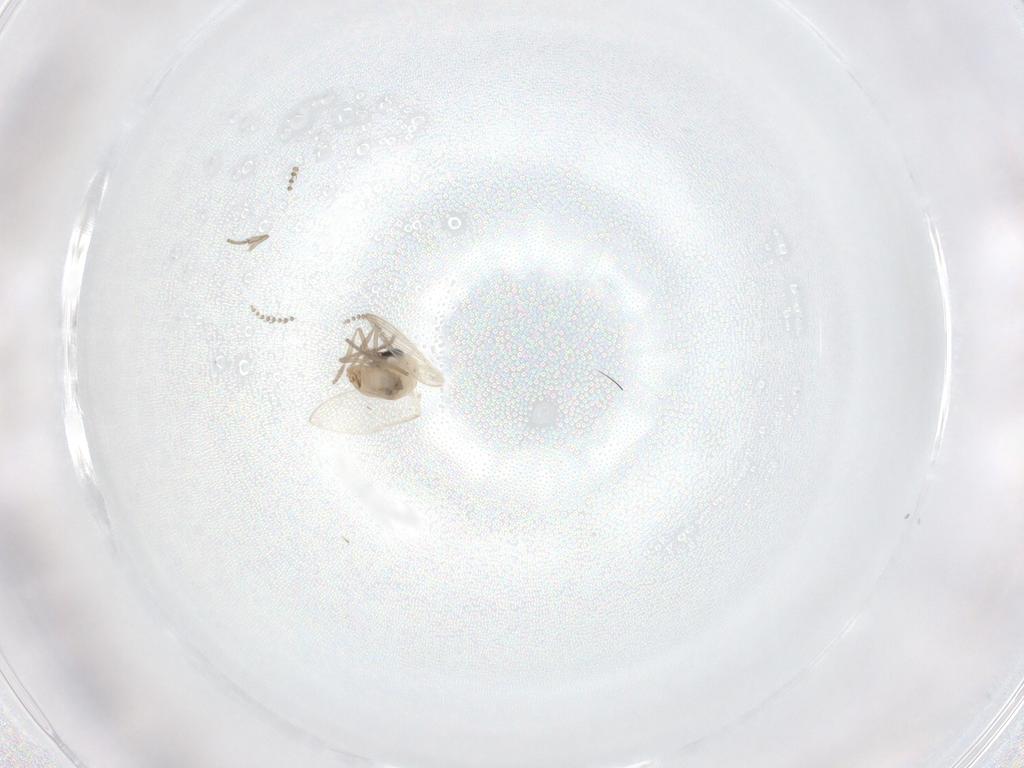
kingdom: Animalia
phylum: Arthropoda
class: Insecta
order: Diptera
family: Psychodidae
